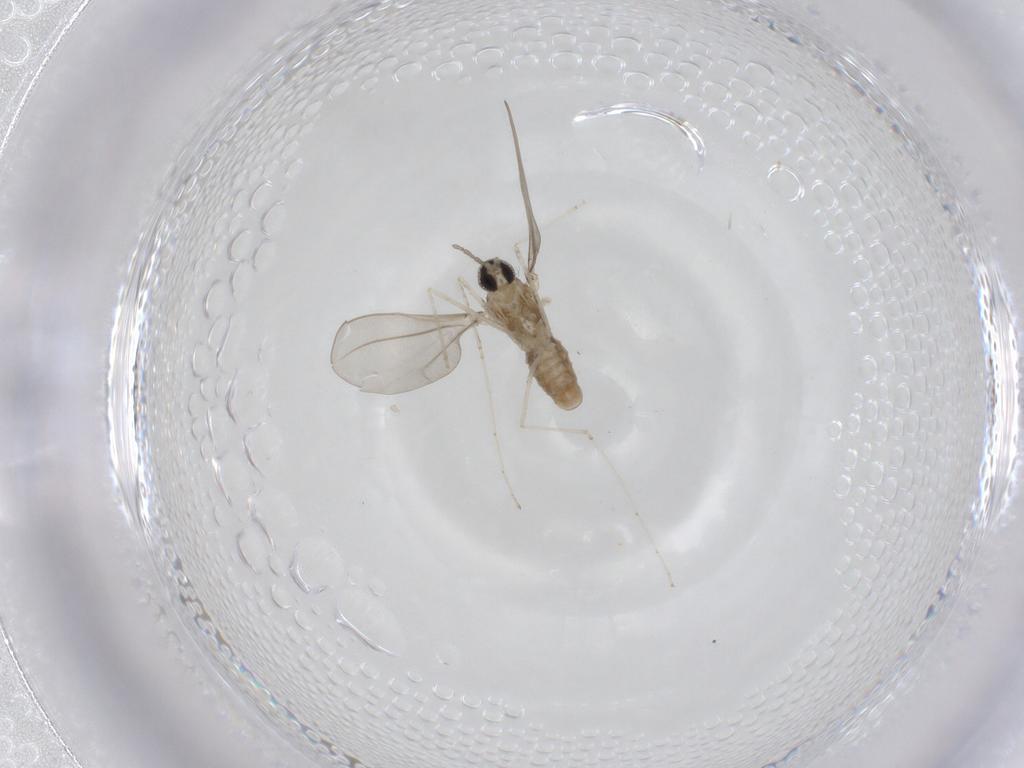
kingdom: Animalia
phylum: Arthropoda
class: Insecta
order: Diptera
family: Cecidomyiidae
